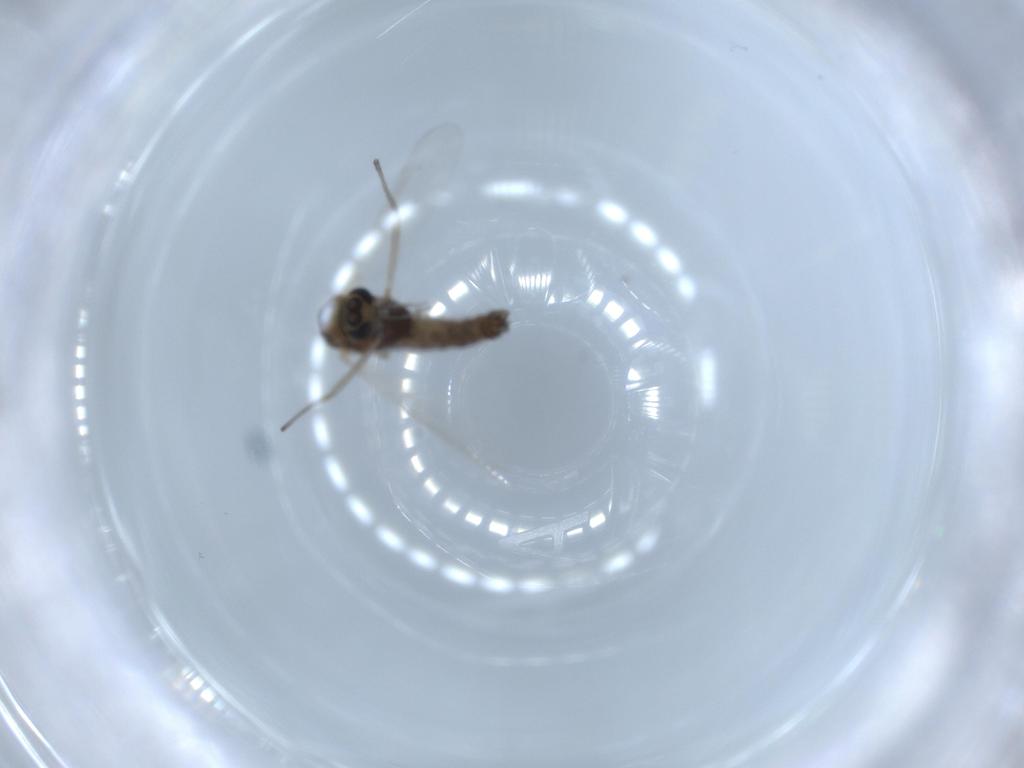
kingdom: Animalia
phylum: Arthropoda
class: Insecta
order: Diptera
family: Chironomidae
